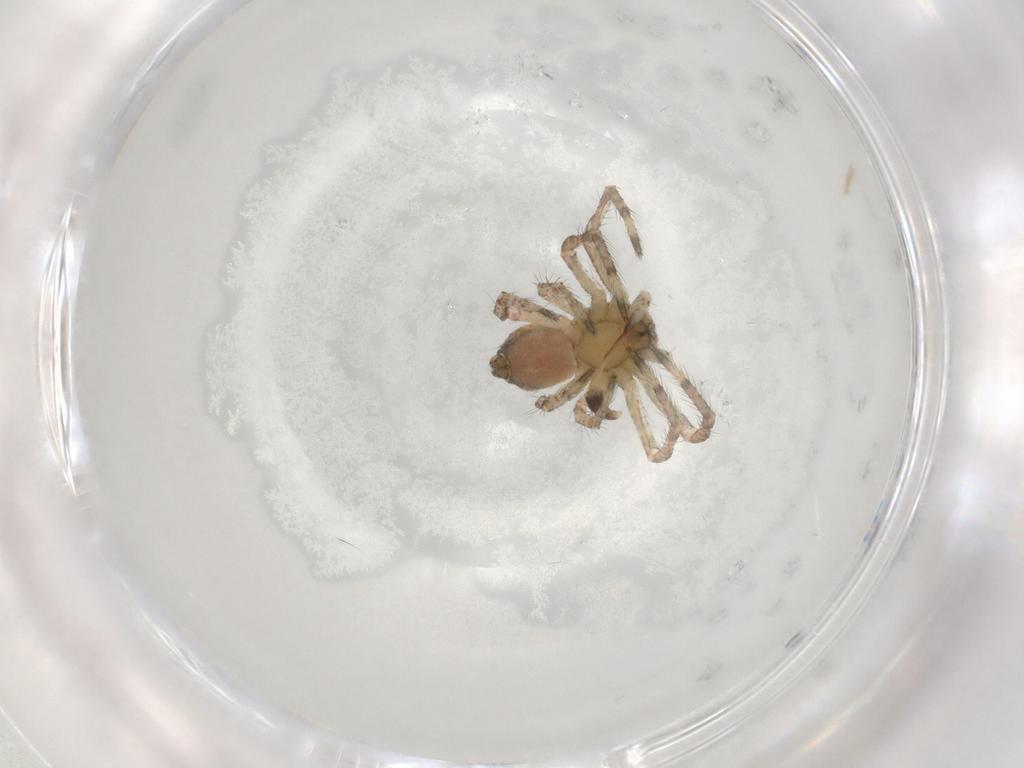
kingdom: Animalia
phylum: Arthropoda
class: Arachnida
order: Araneae
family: Thomisidae
